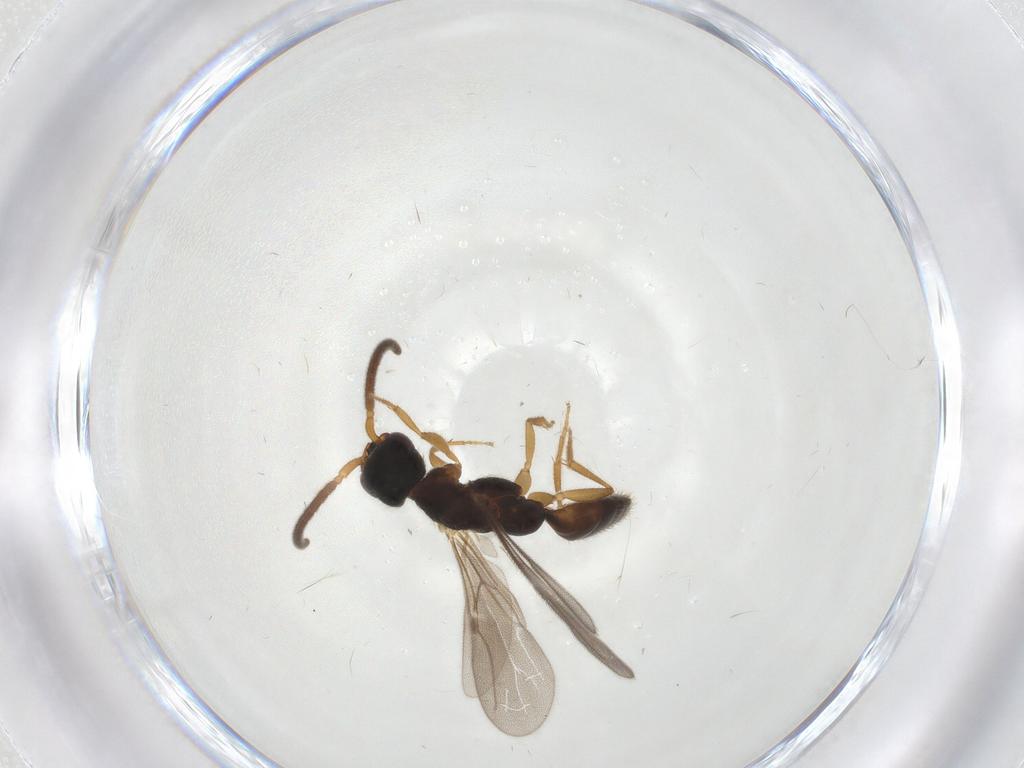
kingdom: Animalia
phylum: Arthropoda
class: Insecta
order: Hymenoptera
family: Bethylidae
